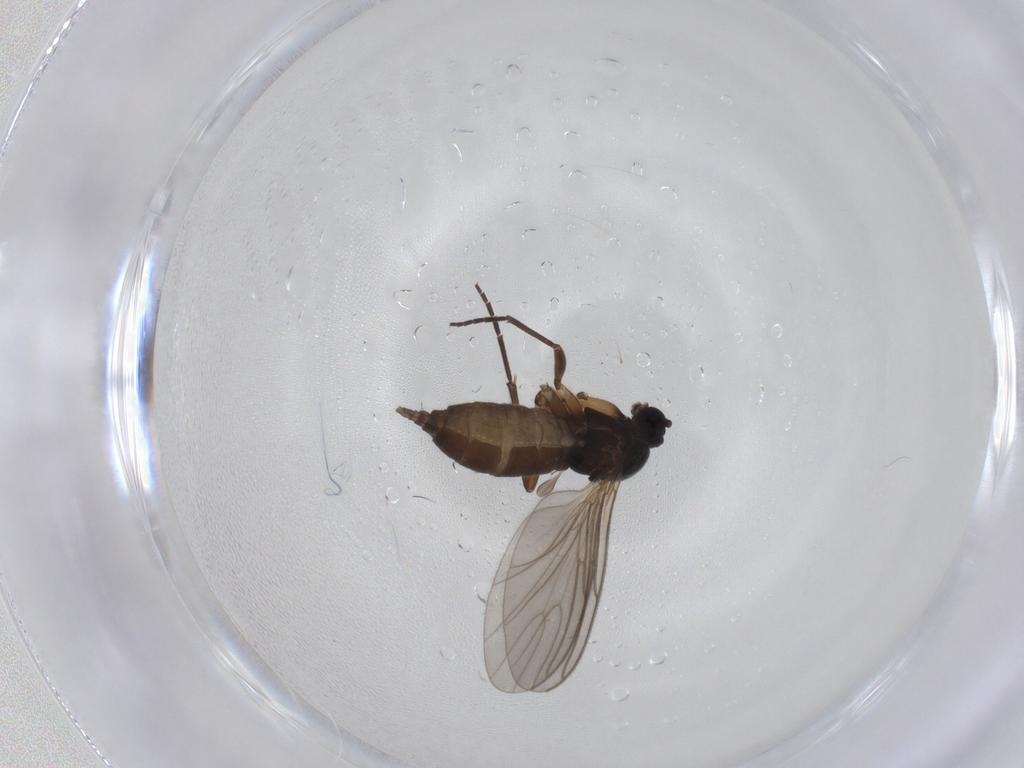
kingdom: Animalia
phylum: Arthropoda
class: Insecta
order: Diptera
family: Sciaridae
